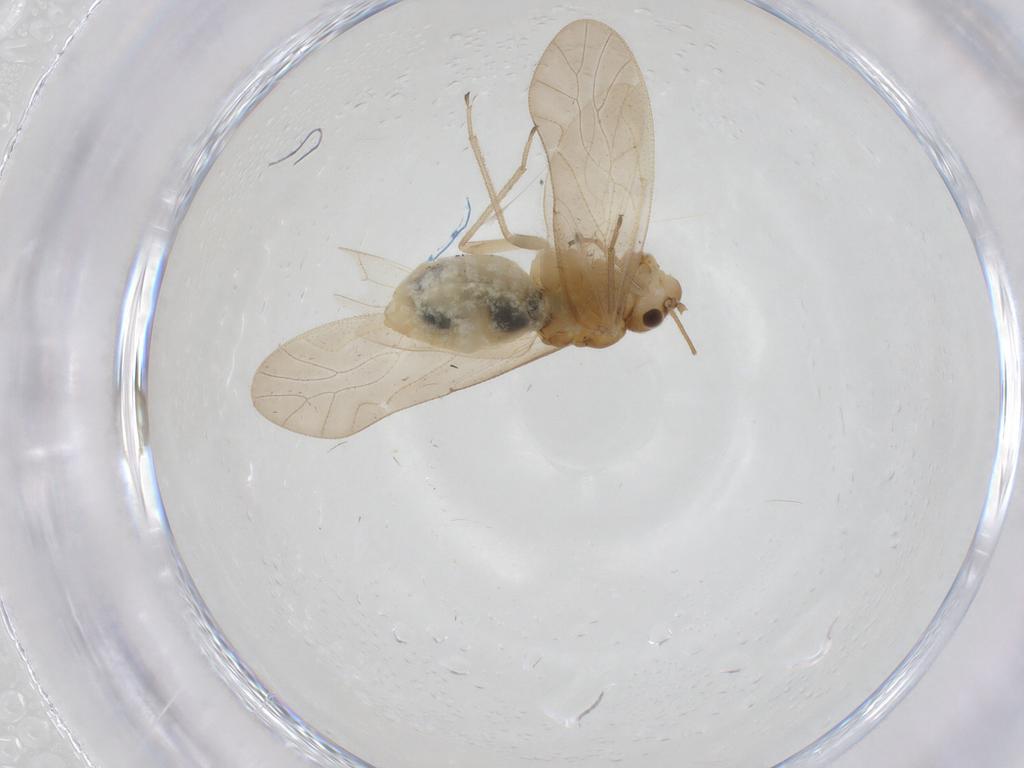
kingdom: Animalia
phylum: Arthropoda
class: Insecta
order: Psocodea
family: Caeciliusidae
